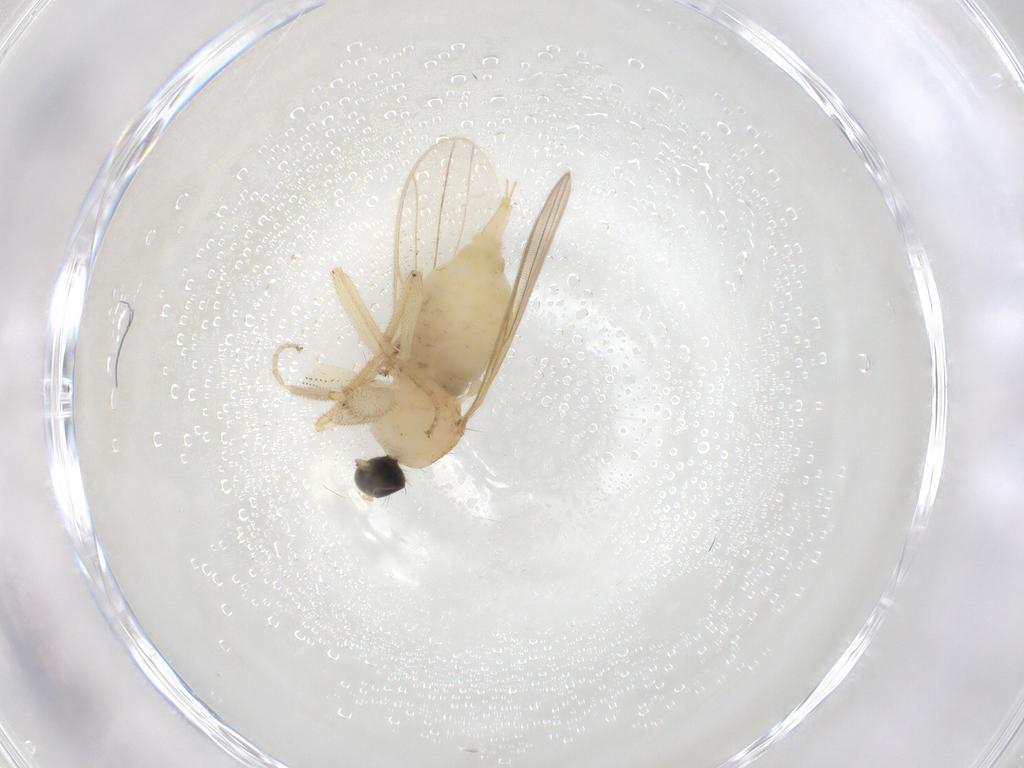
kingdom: Animalia
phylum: Arthropoda
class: Insecta
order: Diptera
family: Hybotidae
